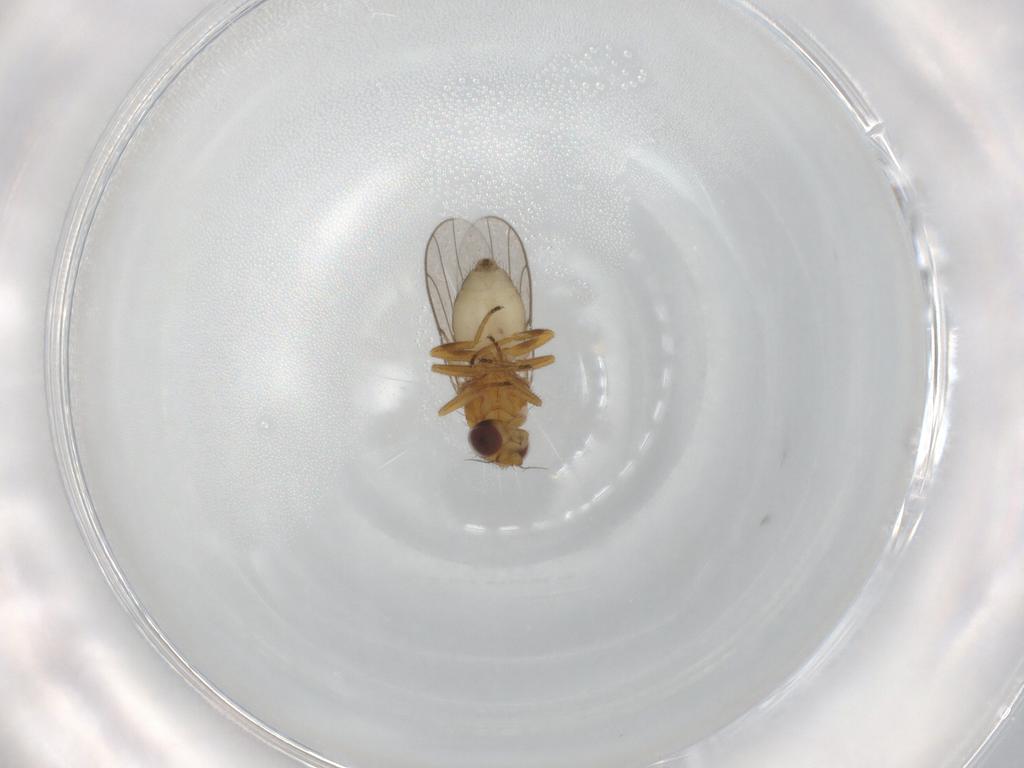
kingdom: Animalia
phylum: Arthropoda
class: Insecta
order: Diptera
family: Chloropidae
